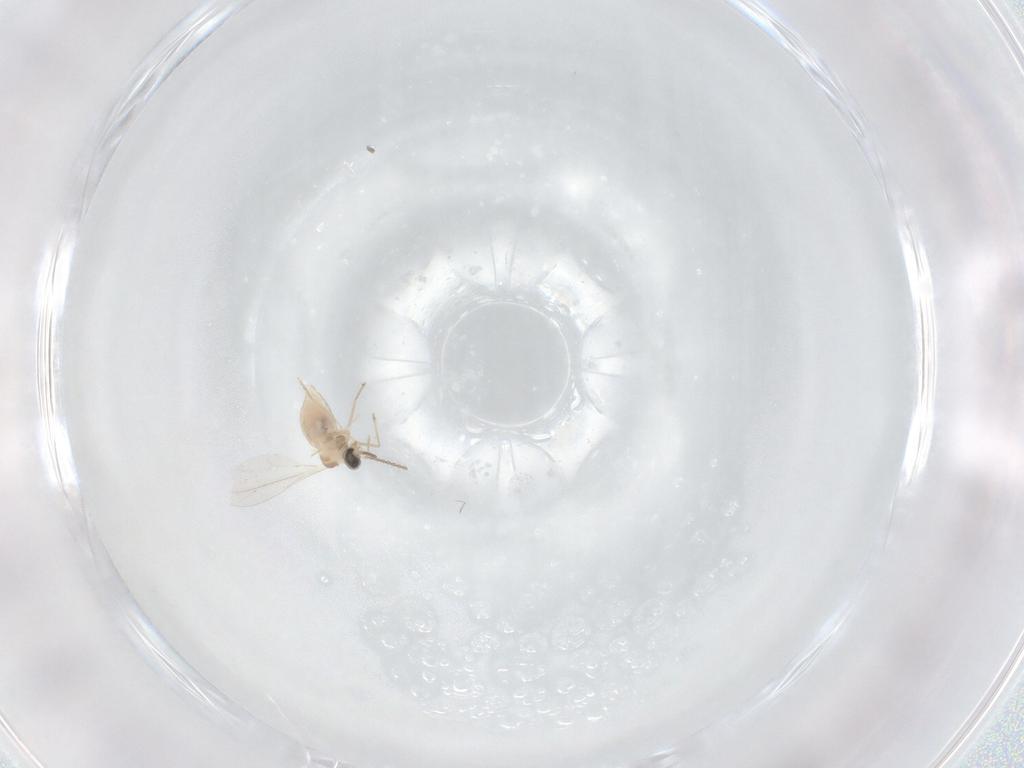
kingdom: Animalia
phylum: Arthropoda
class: Insecta
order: Diptera
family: Cecidomyiidae
